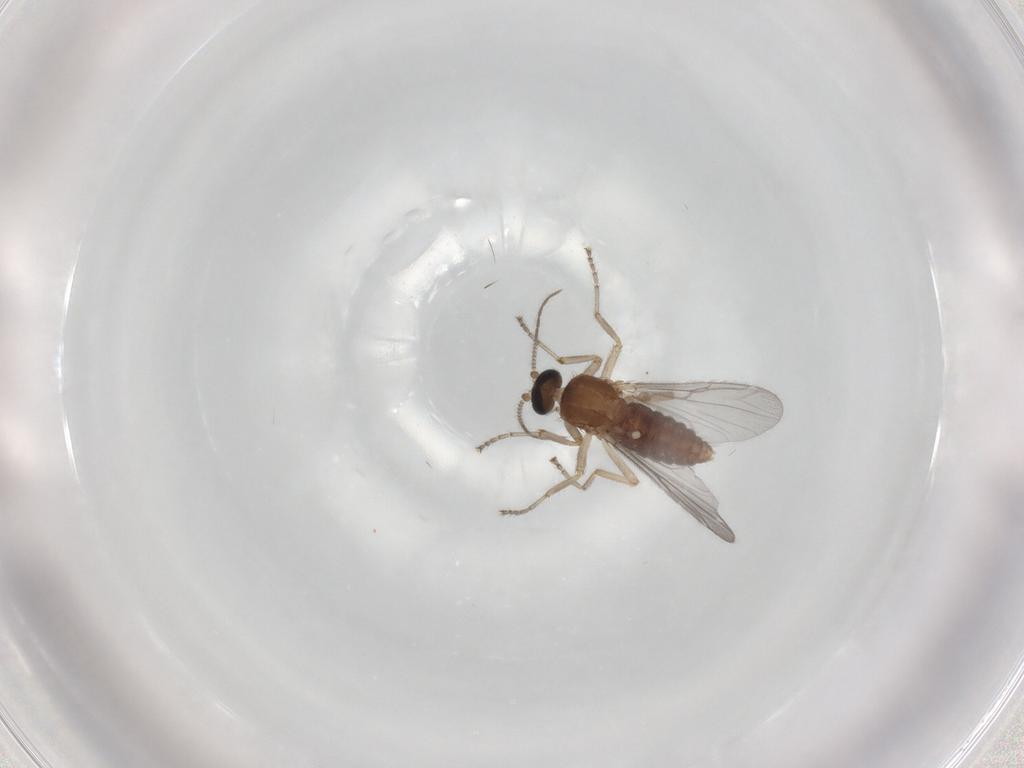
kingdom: Animalia
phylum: Arthropoda
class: Insecta
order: Diptera
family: Ceratopogonidae
